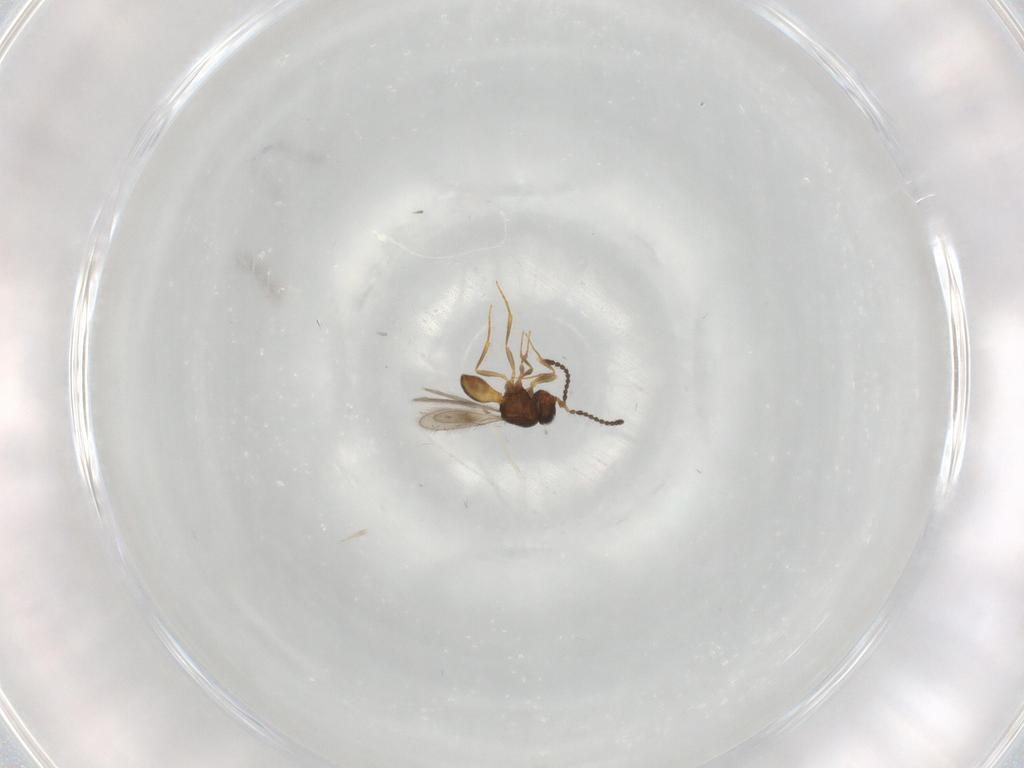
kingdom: Animalia
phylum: Arthropoda
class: Insecta
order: Hymenoptera
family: Scelionidae
